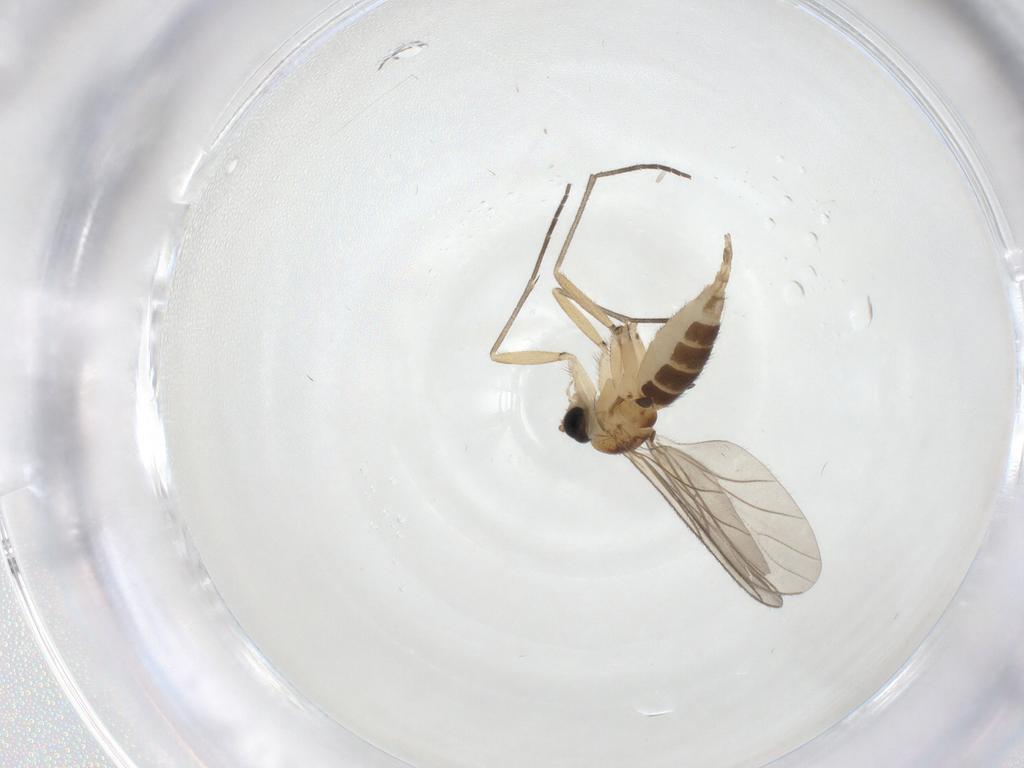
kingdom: Animalia
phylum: Arthropoda
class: Insecta
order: Diptera
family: Sciaridae
